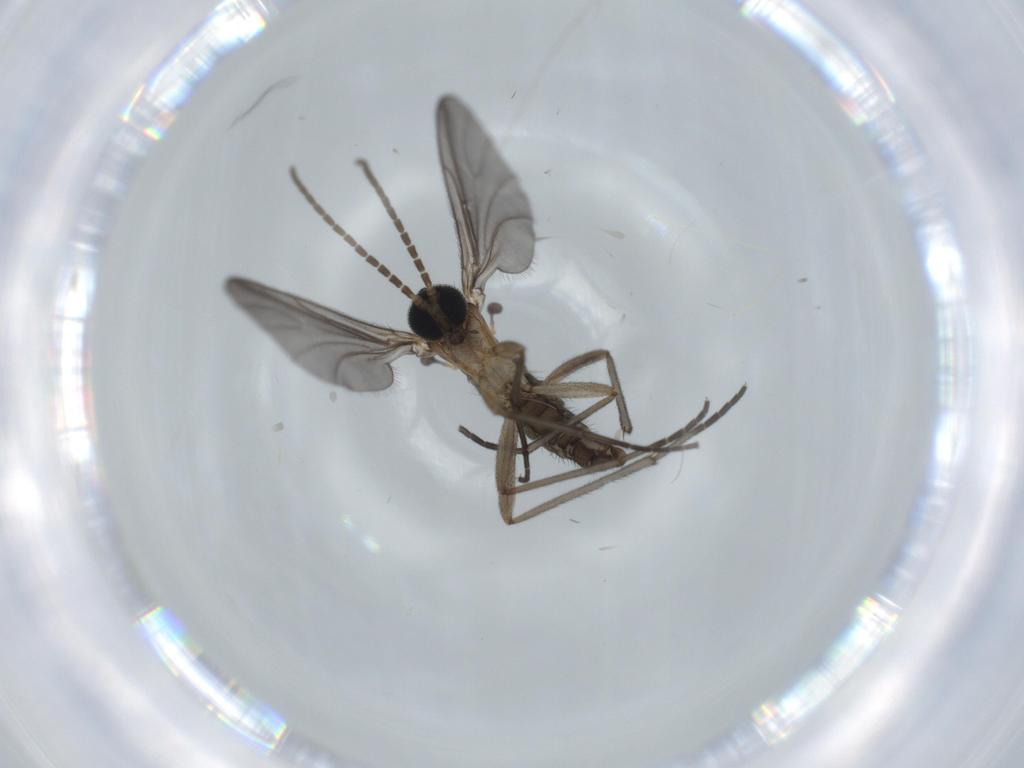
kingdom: Animalia
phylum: Arthropoda
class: Insecta
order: Diptera
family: Sciaridae
